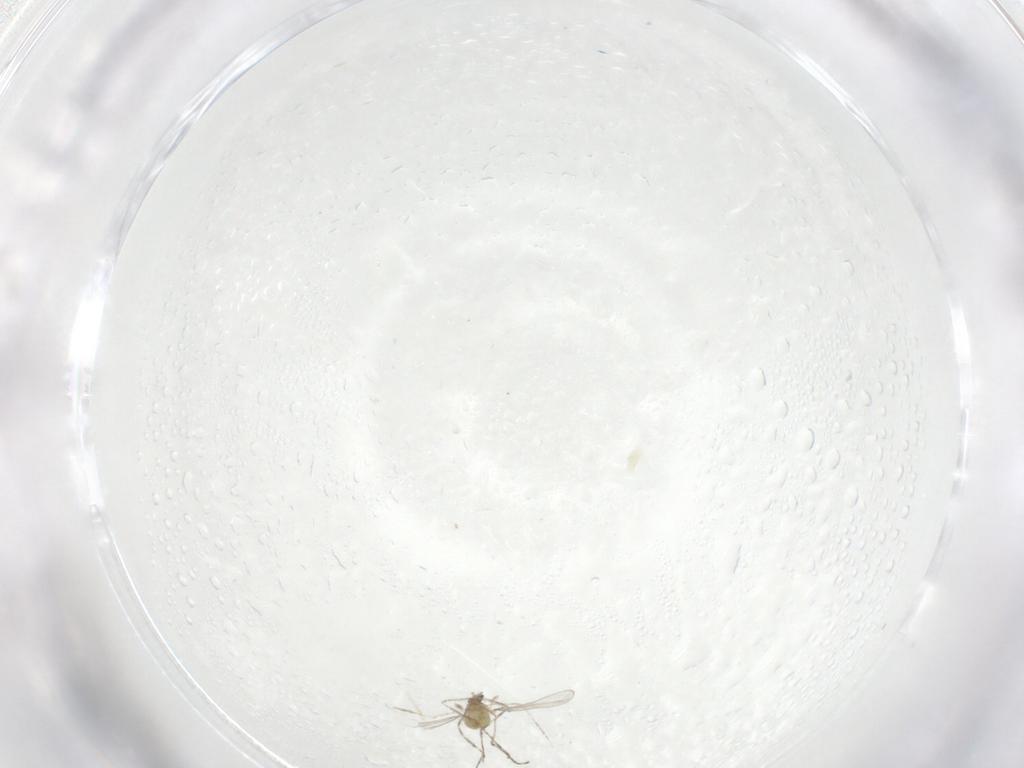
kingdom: Animalia
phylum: Arthropoda
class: Insecta
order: Diptera
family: Cecidomyiidae
